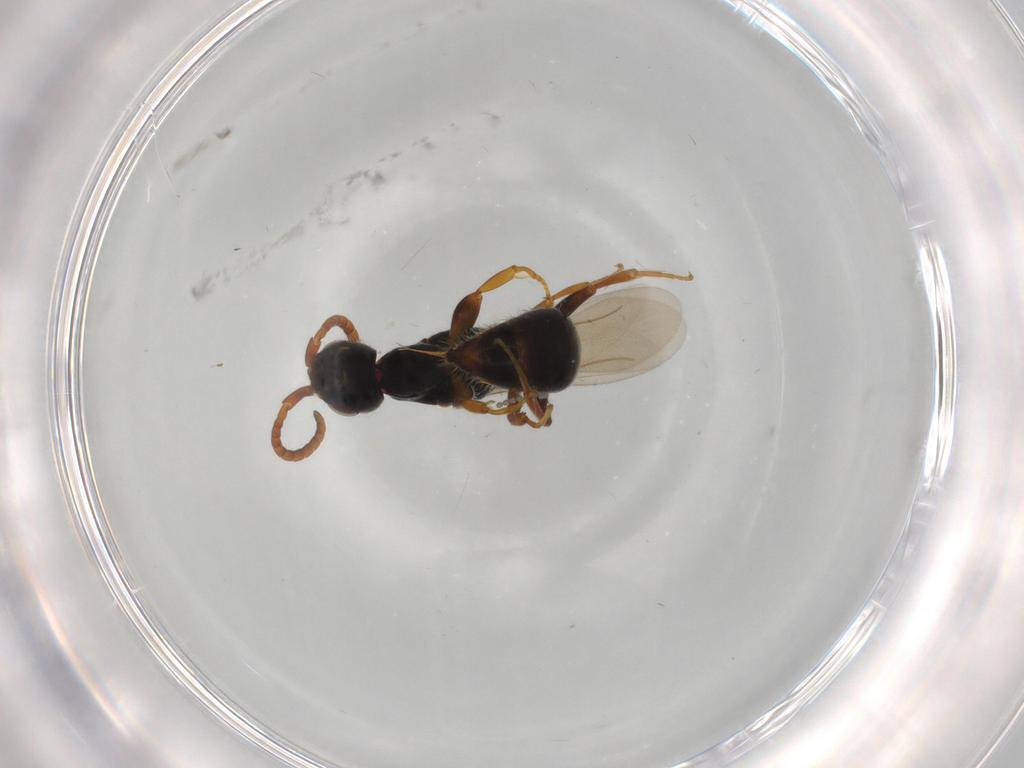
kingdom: Animalia
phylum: Arthropoda
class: Insecta
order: Hymenoptera
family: Bethylidae
